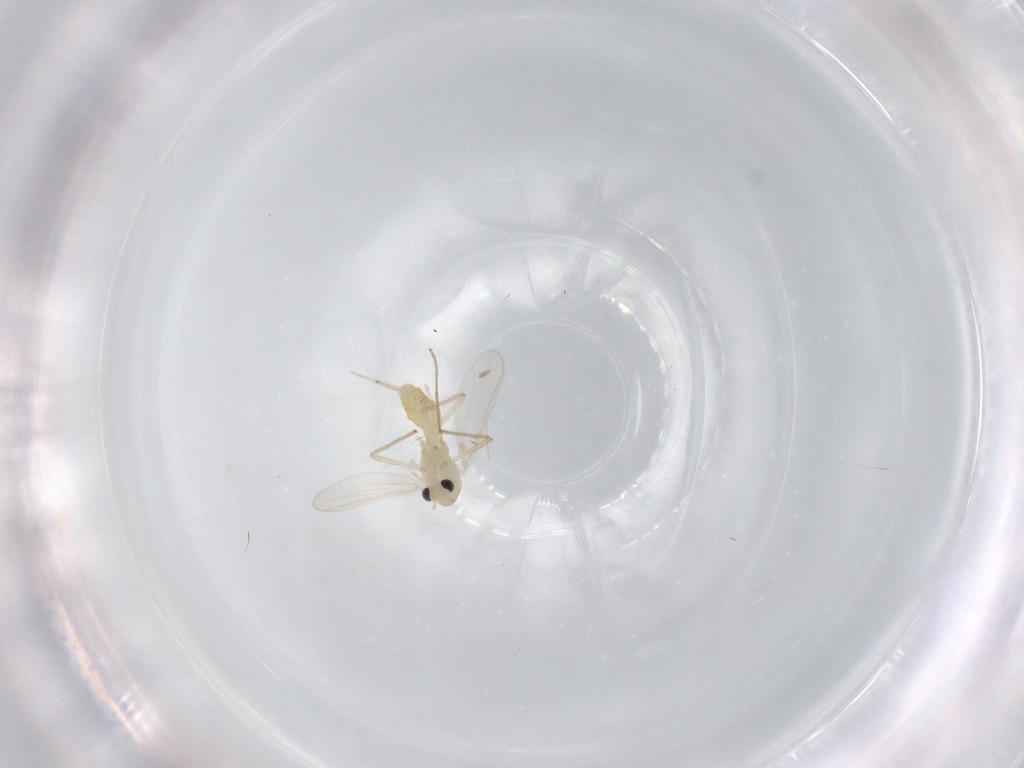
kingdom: Animalia
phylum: Arthropoda
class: Insecta
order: Diptera
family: Chironomidae
